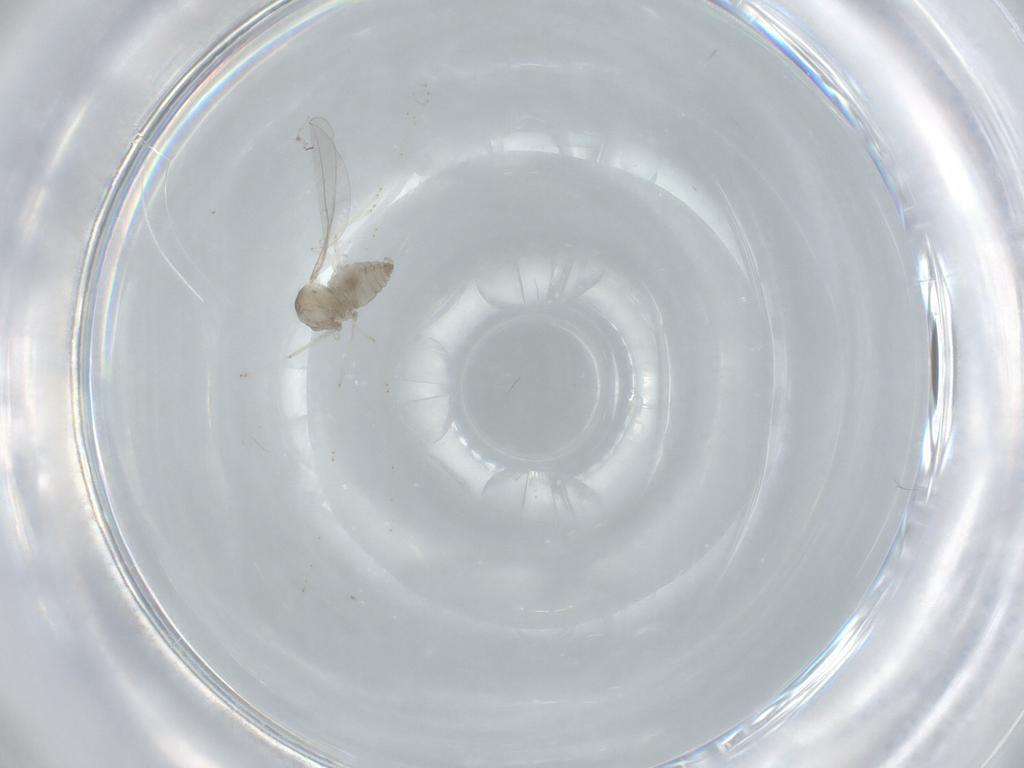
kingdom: Animalia
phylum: Arthropoda
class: Insecta
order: Diptera
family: Cecidomyiidae
